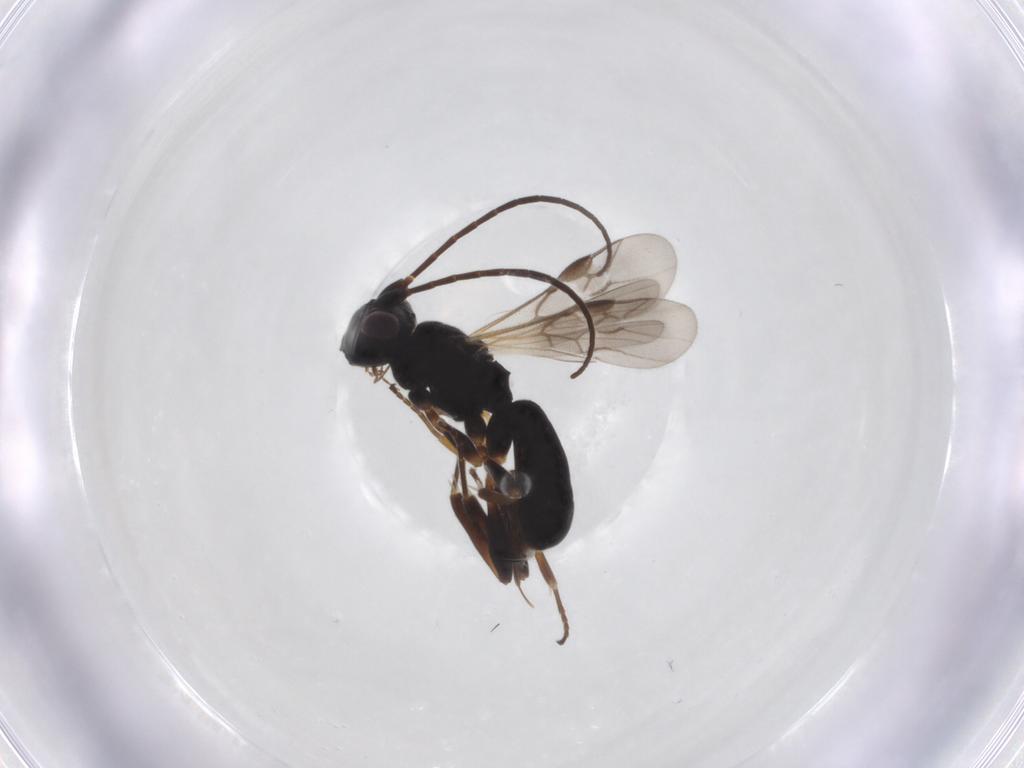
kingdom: Animalia
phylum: Arthropoda
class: Insecta
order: Hymenoptera
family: Braconidae
